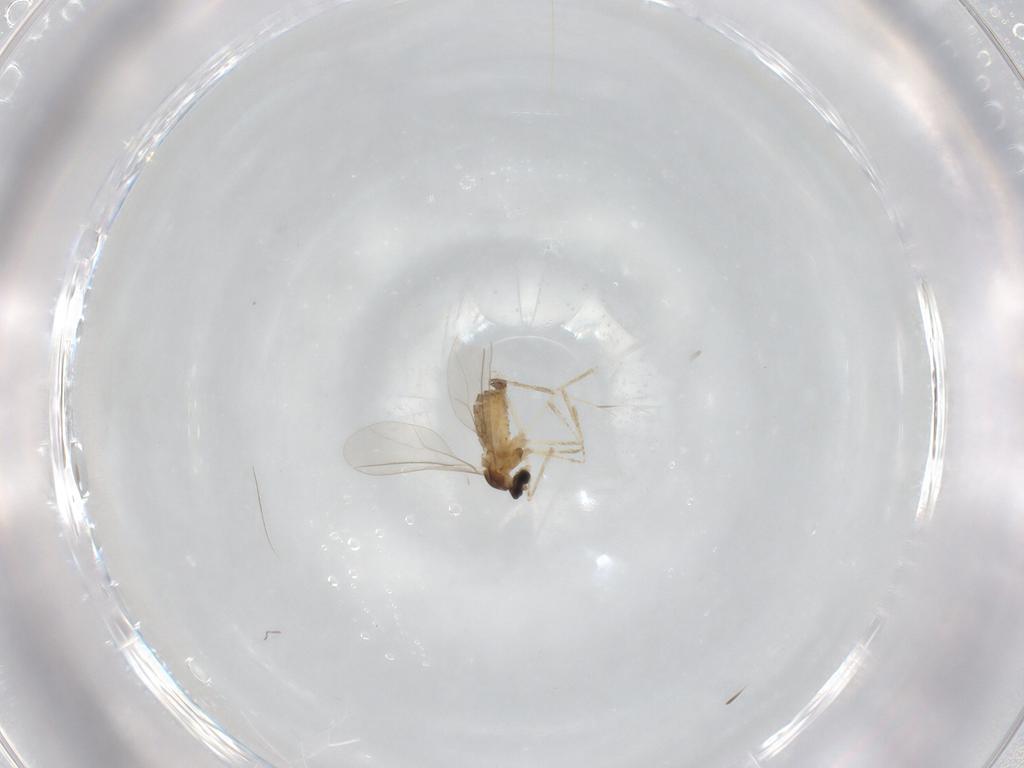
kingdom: Animalia
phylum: Arthropoda
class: Insecta
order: Diptera
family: Cecidomyiidae
